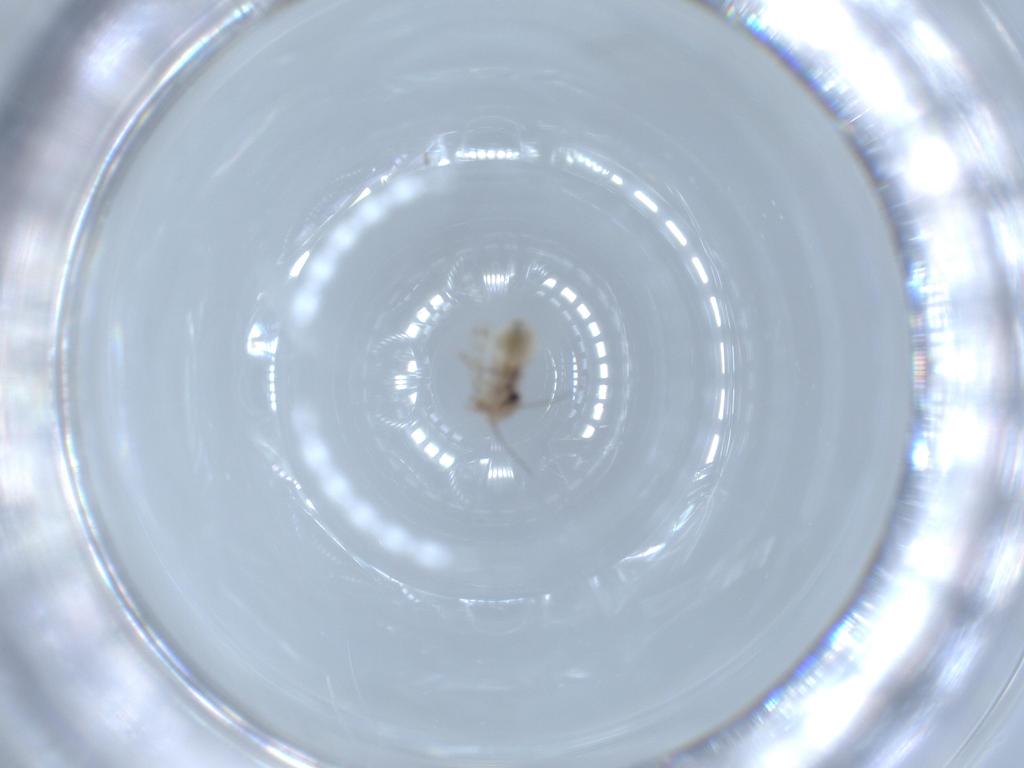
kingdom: Animalia
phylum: Arthropoda
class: Insecta
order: Psocodea
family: Lepidopsocidae
